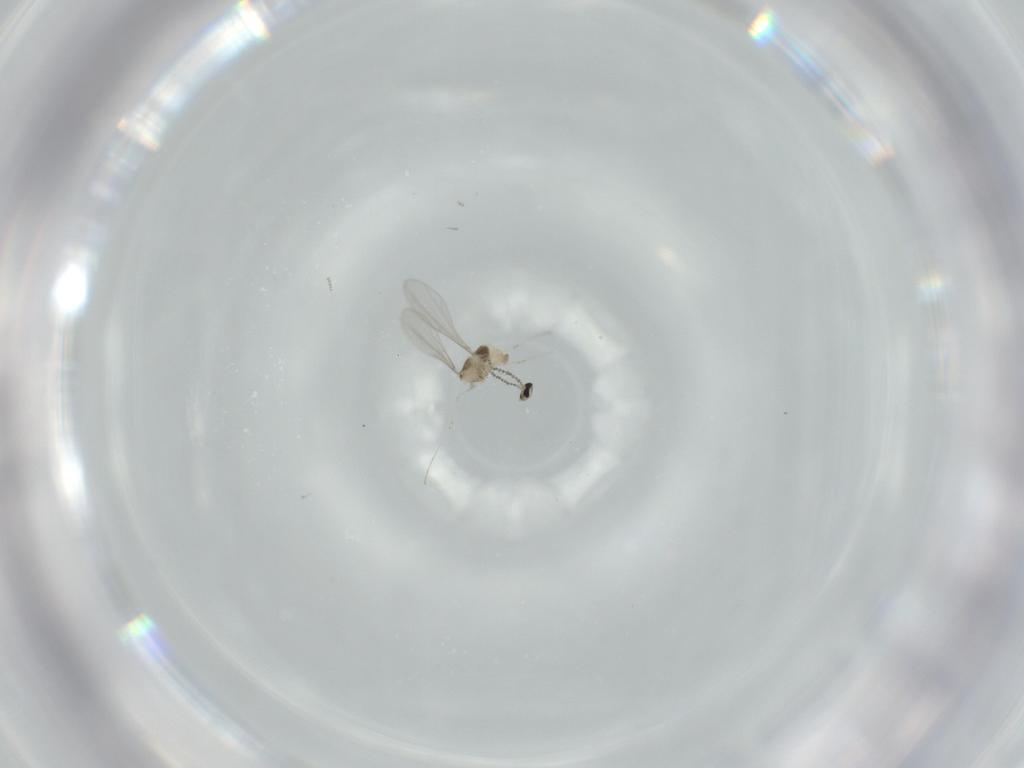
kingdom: Animalia
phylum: Arthropoda
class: Insecta
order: Diptera
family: Cecidomyiidae
